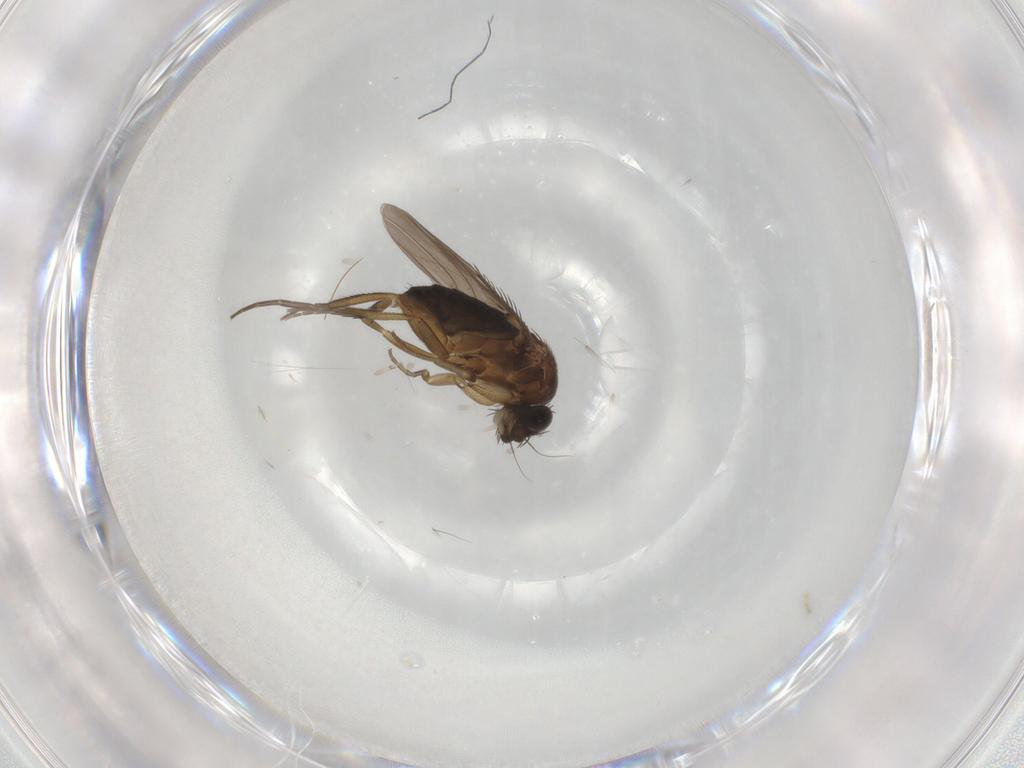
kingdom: Animalia
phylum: Arthropoda
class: Insecta
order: Diptera
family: Phoridae
